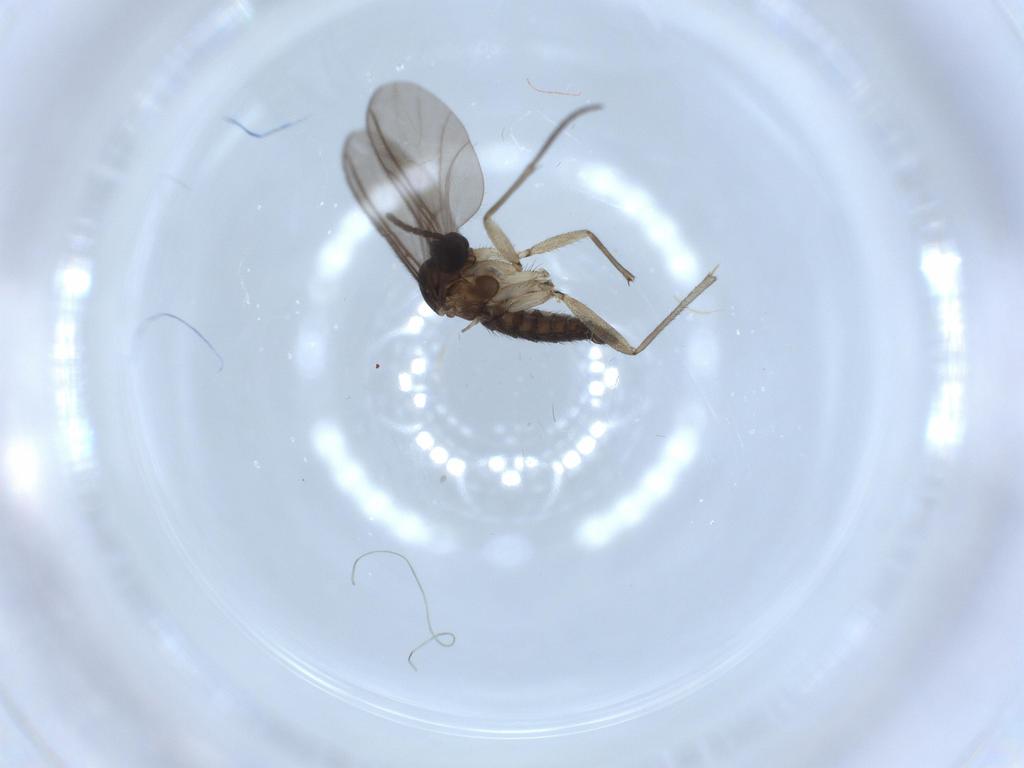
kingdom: Animalia
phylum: Arthropoda
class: Insecta
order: Diptera
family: Sciaridae
